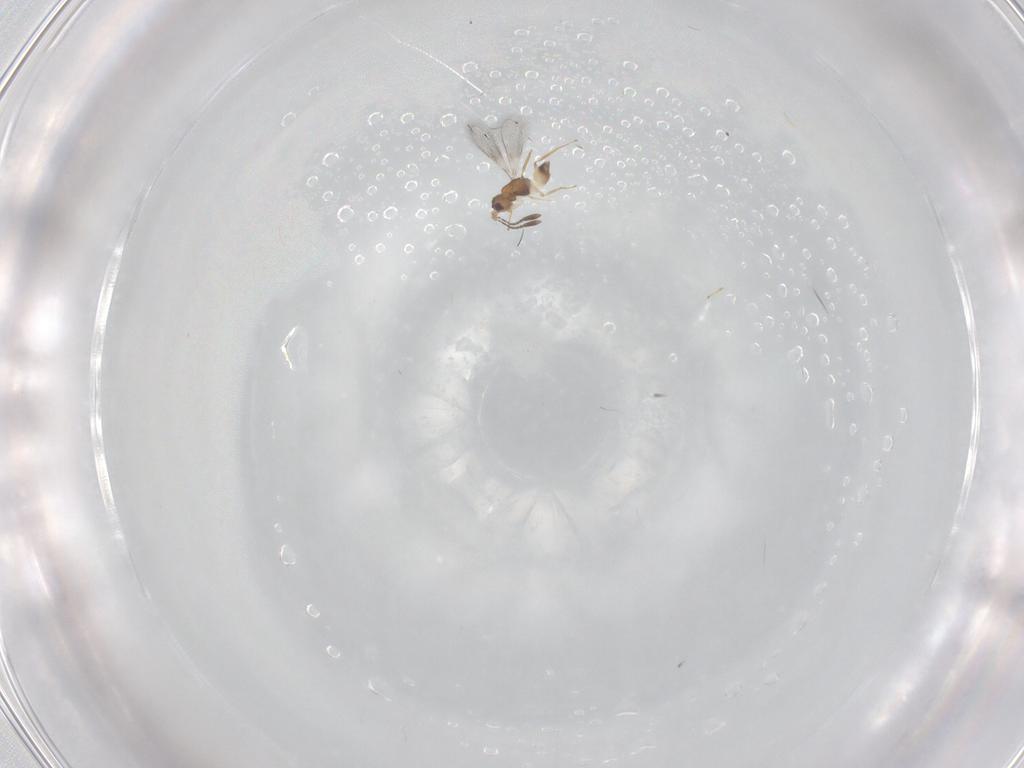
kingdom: Animalia
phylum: Arthropoda
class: Insecta
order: Hymenoptera
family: Mymaridae
